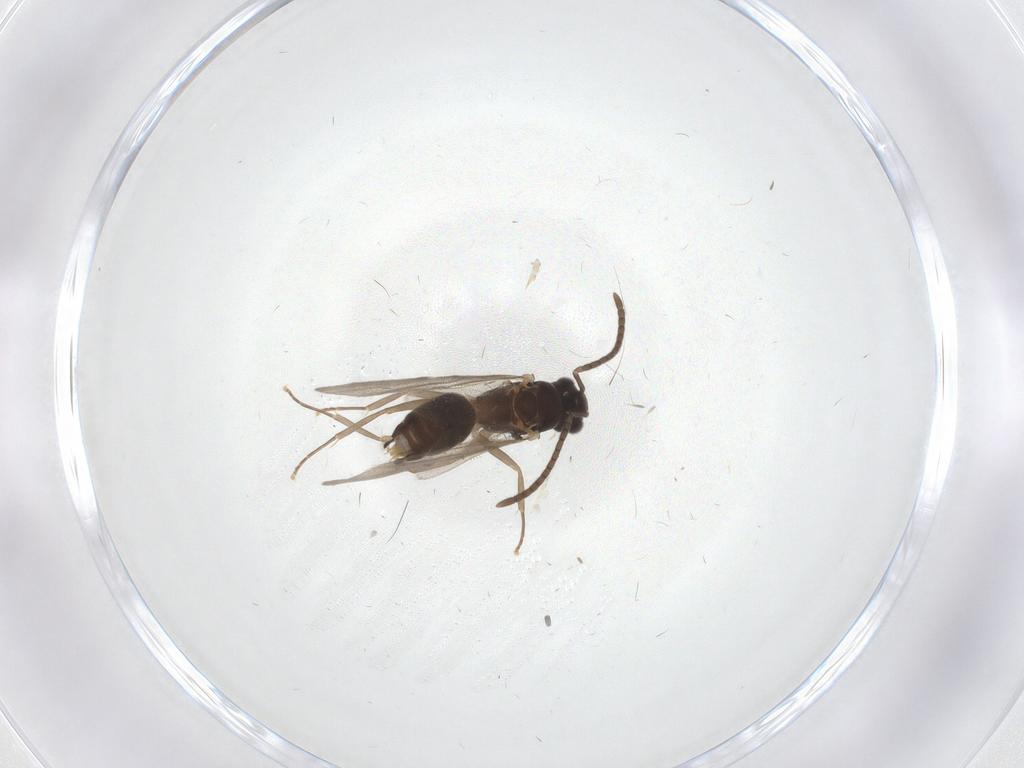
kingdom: Animalia
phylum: Arthropoda
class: Insecta
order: Hymenoptera
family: Formicidae
